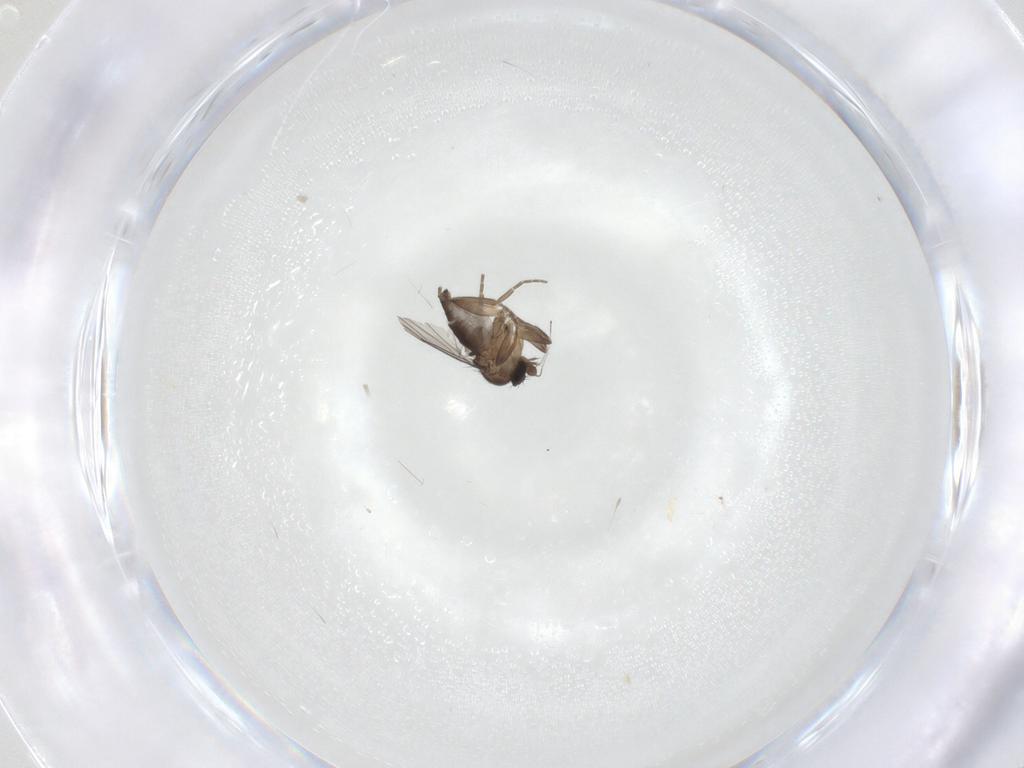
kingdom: Animalia
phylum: Arthropoda
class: Insecta
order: Diptera
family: Phoridae
